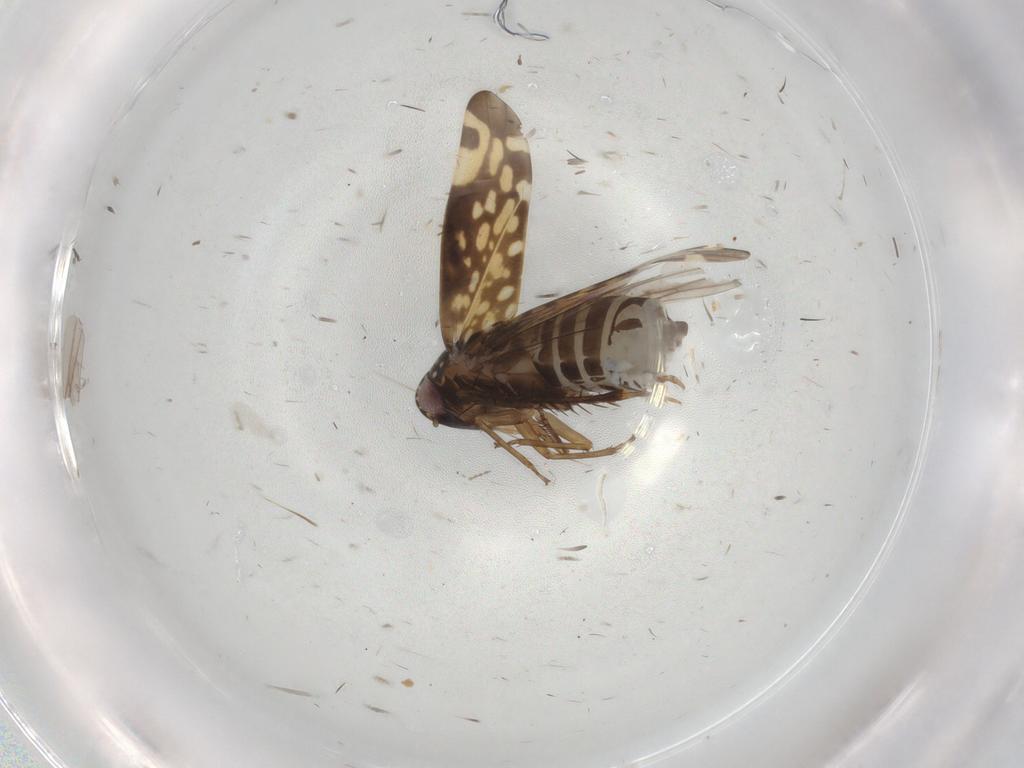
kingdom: Animalia
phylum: Arthropoda
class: Insecta
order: Hemiptera
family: Cicadellidae
